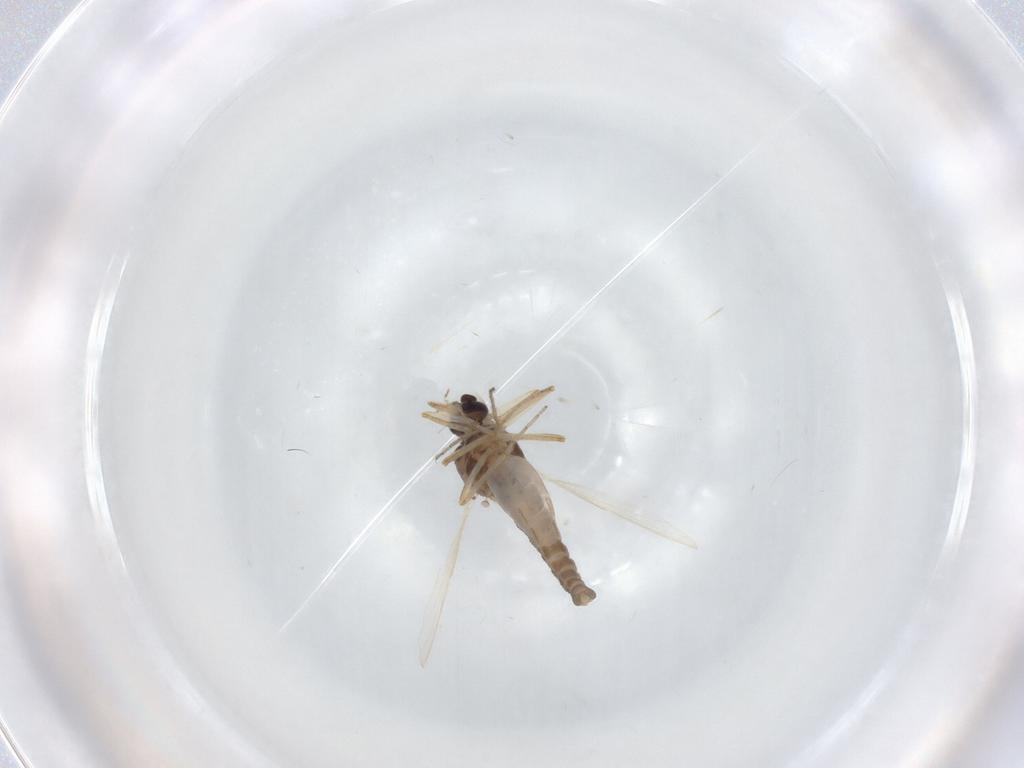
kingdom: Animalia
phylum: Arthropoda
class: Insecta
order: Diptera
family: Ceratopogonidae
